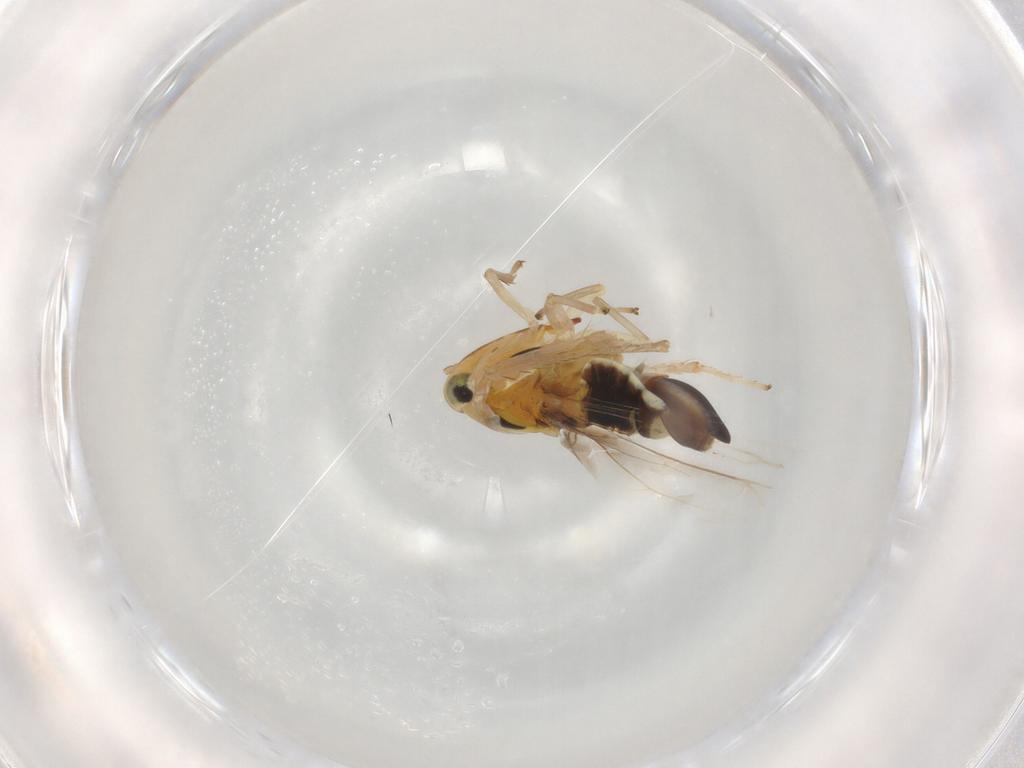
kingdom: Animalia
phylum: Arthropoda
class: Insecta
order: Hemiptera
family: Cicadellidae
